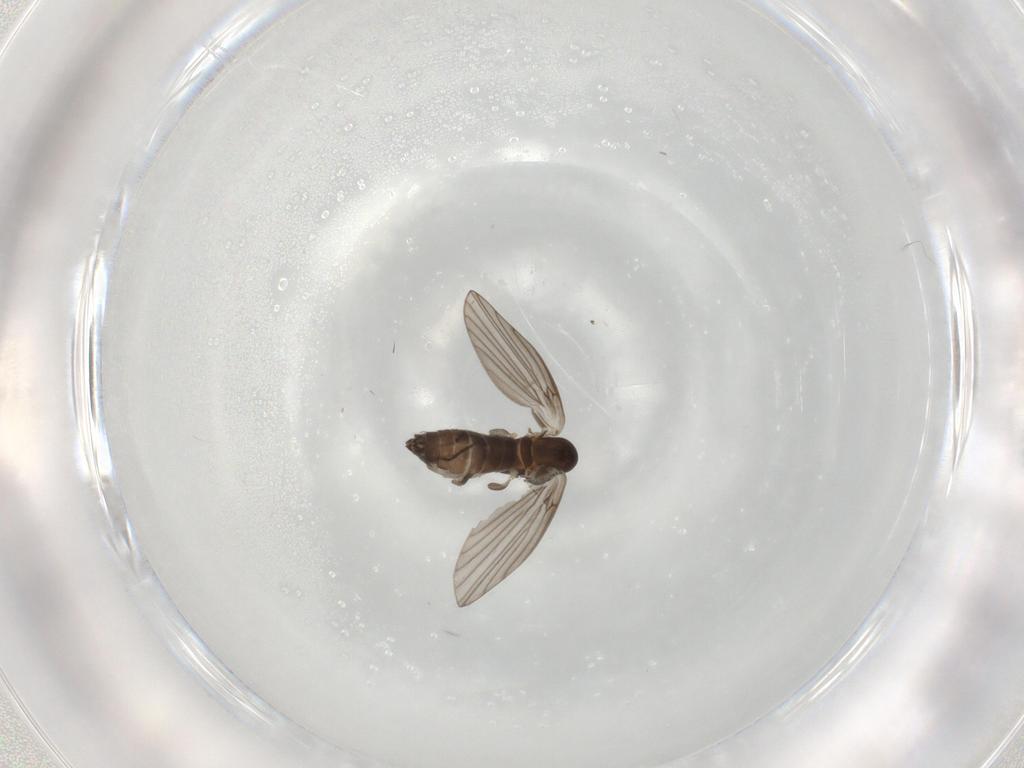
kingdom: Animalia
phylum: Arthropoda
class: Insecta
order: Diptera
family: Chironomidae
